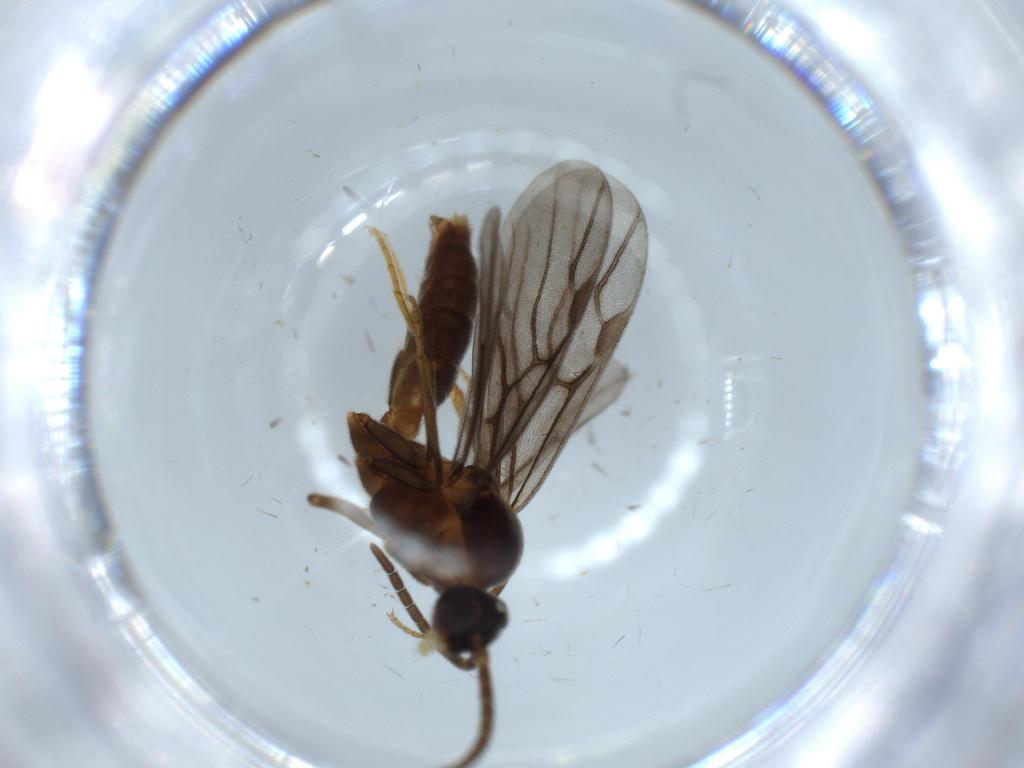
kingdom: Animalia
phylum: Arthropoda
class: Insecta
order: Hymenoptera
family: Formicidae
